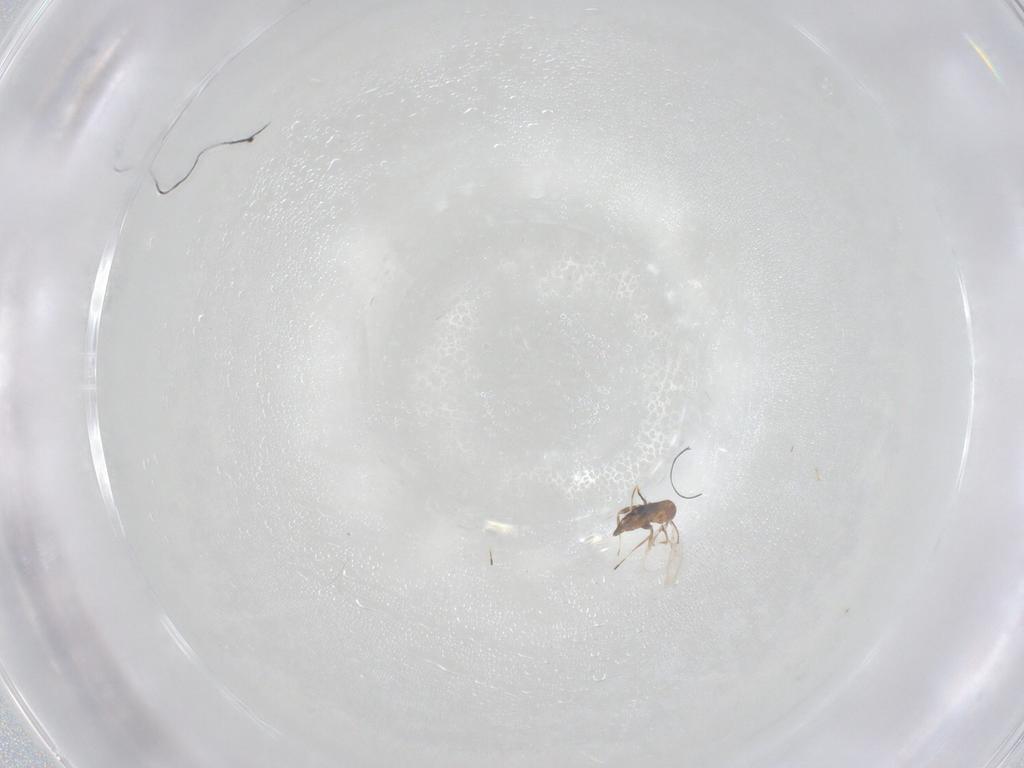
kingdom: Animalia
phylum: Arthropoda
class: Insecta
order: Hymenoptera
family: Trichogrammatidae
